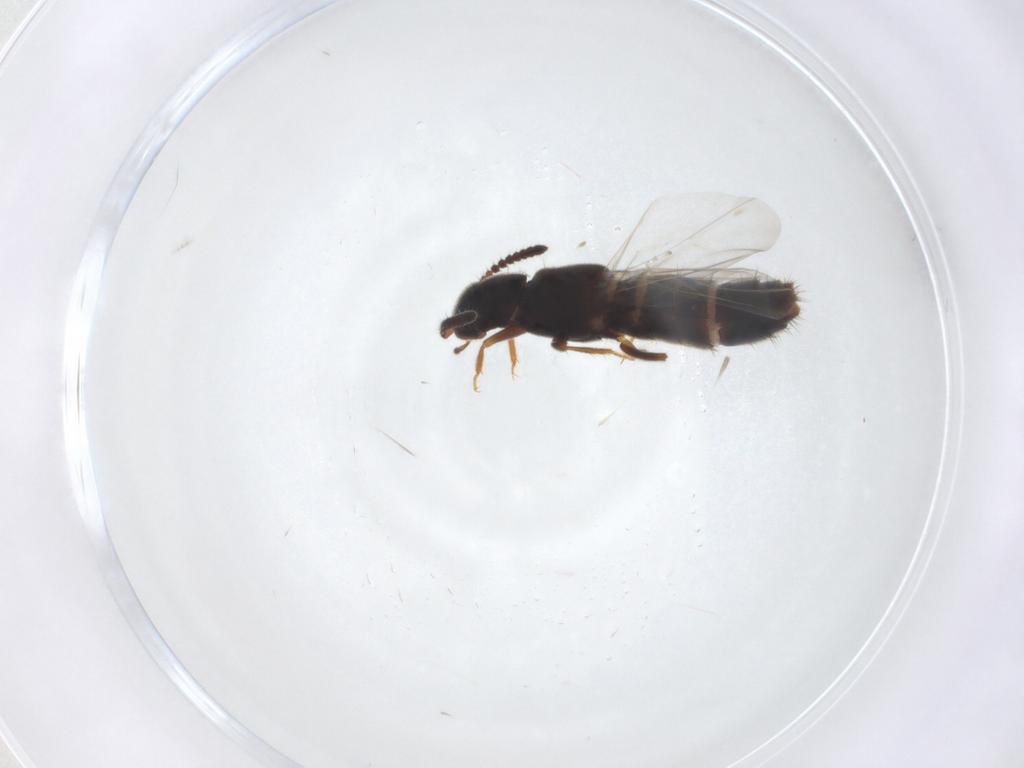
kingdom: Animalia
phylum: Arthropoda
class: Insecta
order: Coleoptera
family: Staphylinidae
